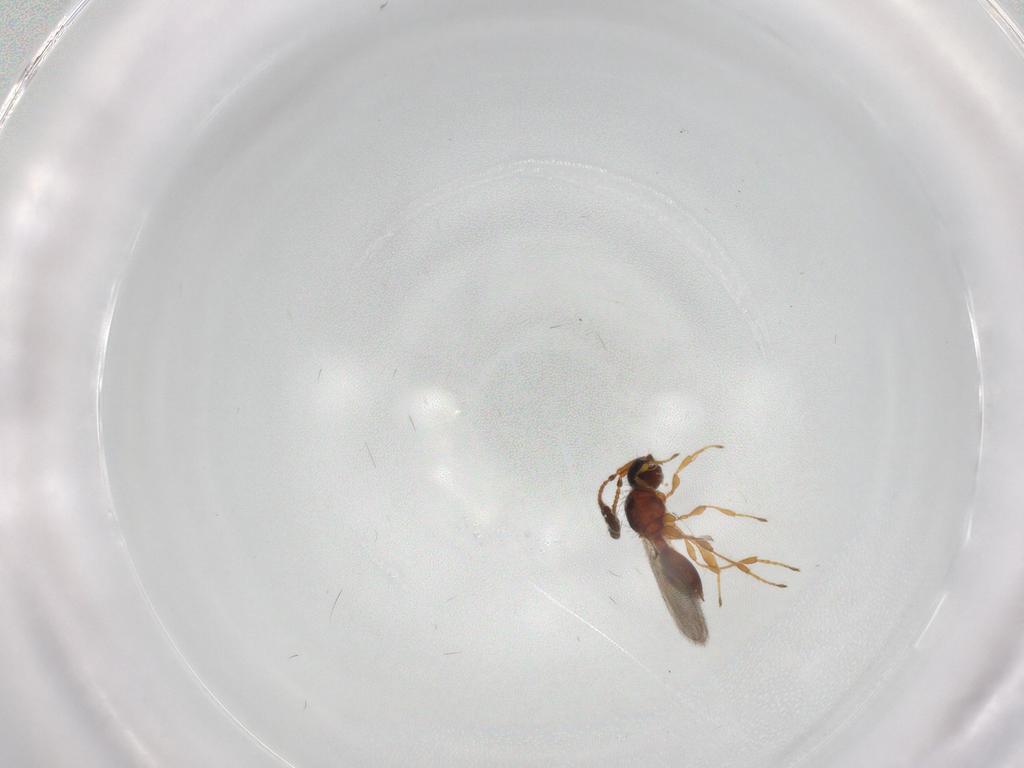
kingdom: Animalia
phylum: Arthropoda
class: Insecta
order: Hymenoptera
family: Diapriidae
